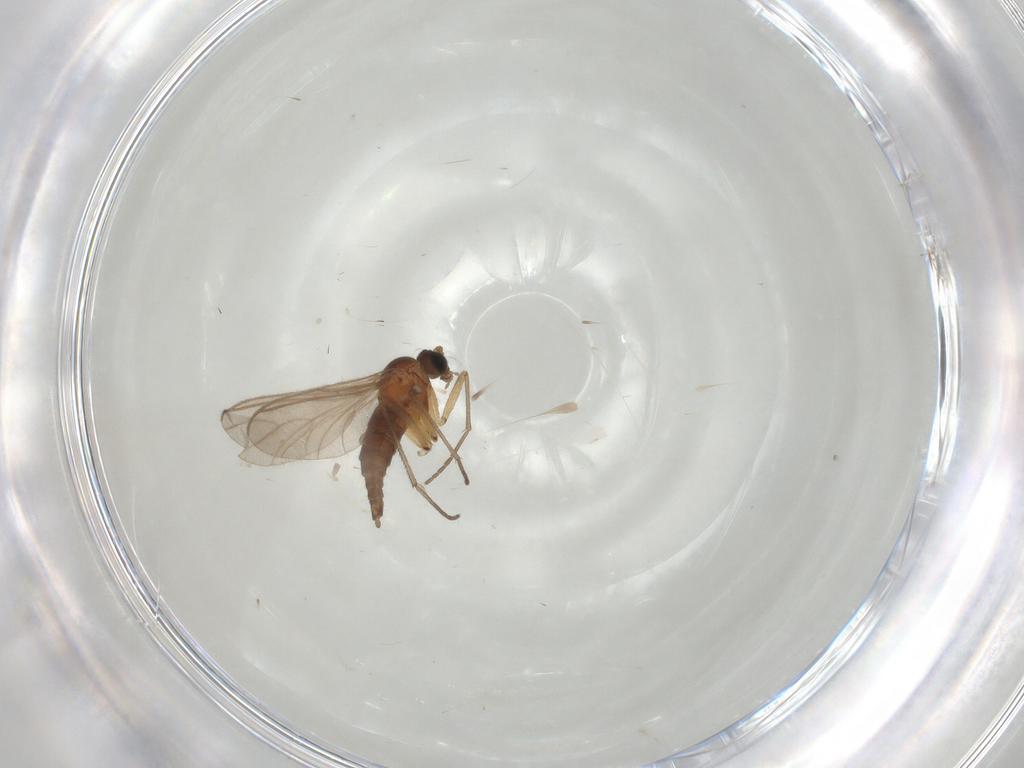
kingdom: Animalia
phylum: Arthropoda
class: Insecta
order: Diptera
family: Sciaridae
